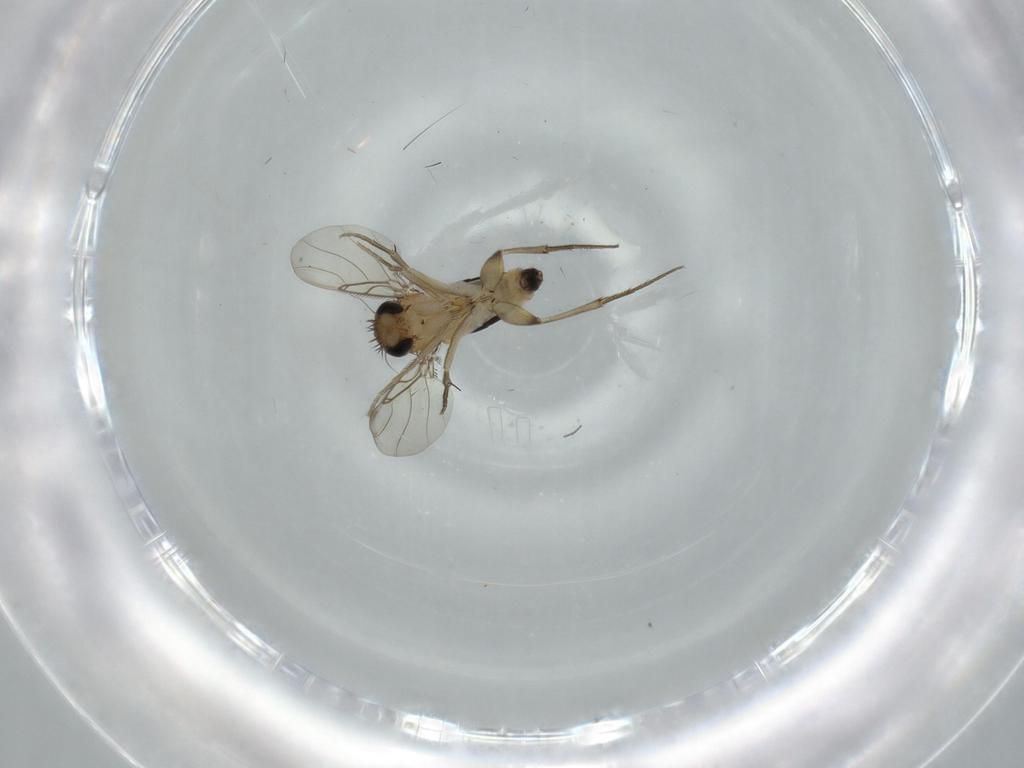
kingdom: Animalia
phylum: Arthropoda
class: Insecta
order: Diptera
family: Phoridae
